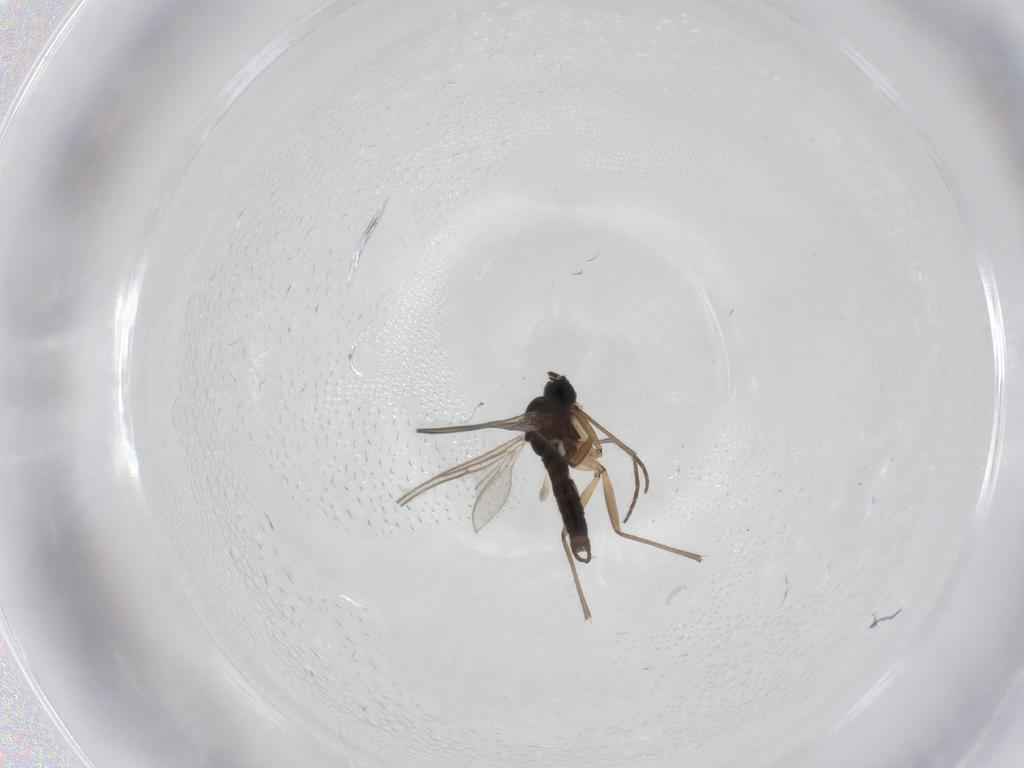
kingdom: Animalia
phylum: Arthropoda
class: Insecta
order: Diptera
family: Sciaridae
